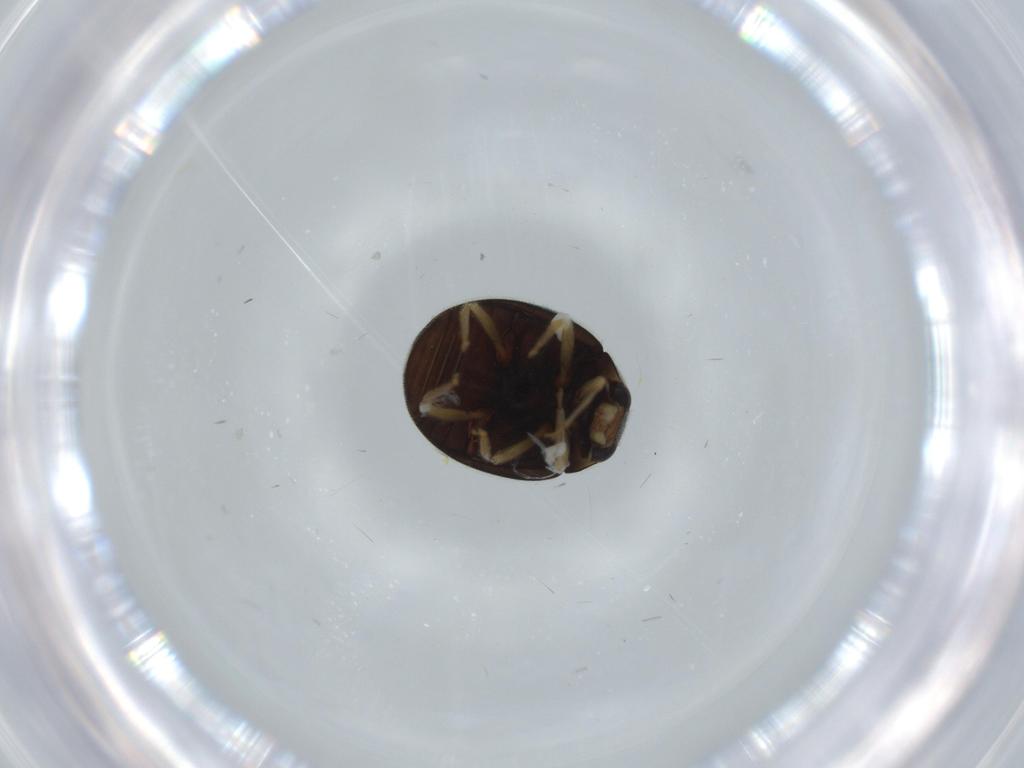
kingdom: Animalia
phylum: Arthropoda
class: Insecta
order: Coleoptera
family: Coccinellidae
